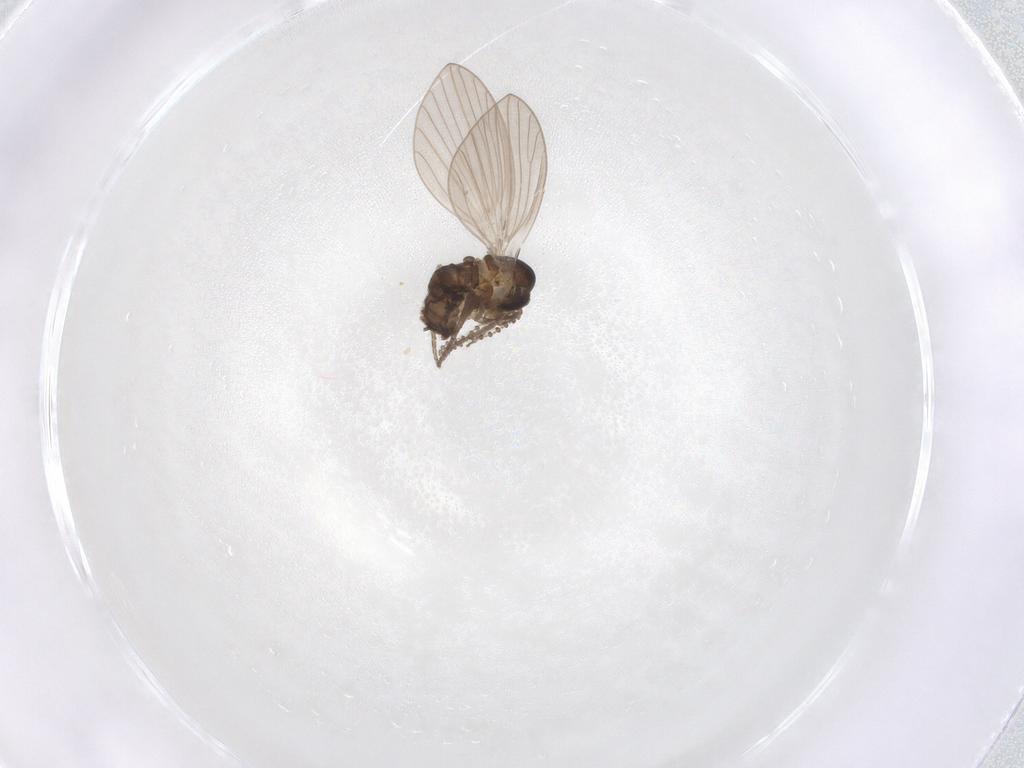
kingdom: Animalia
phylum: Arthropoda
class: Insecta
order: Diptera
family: Psychodidae
